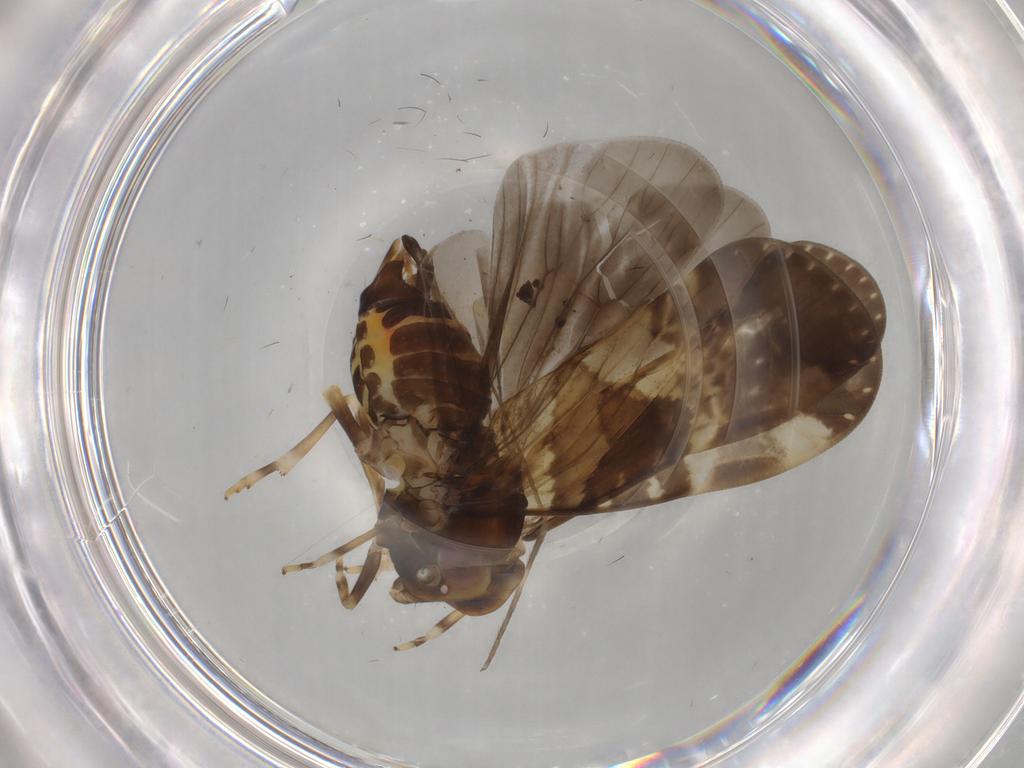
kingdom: Animalia
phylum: Arthropoda
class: Insecta
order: Hemiptera
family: Cixiidae
